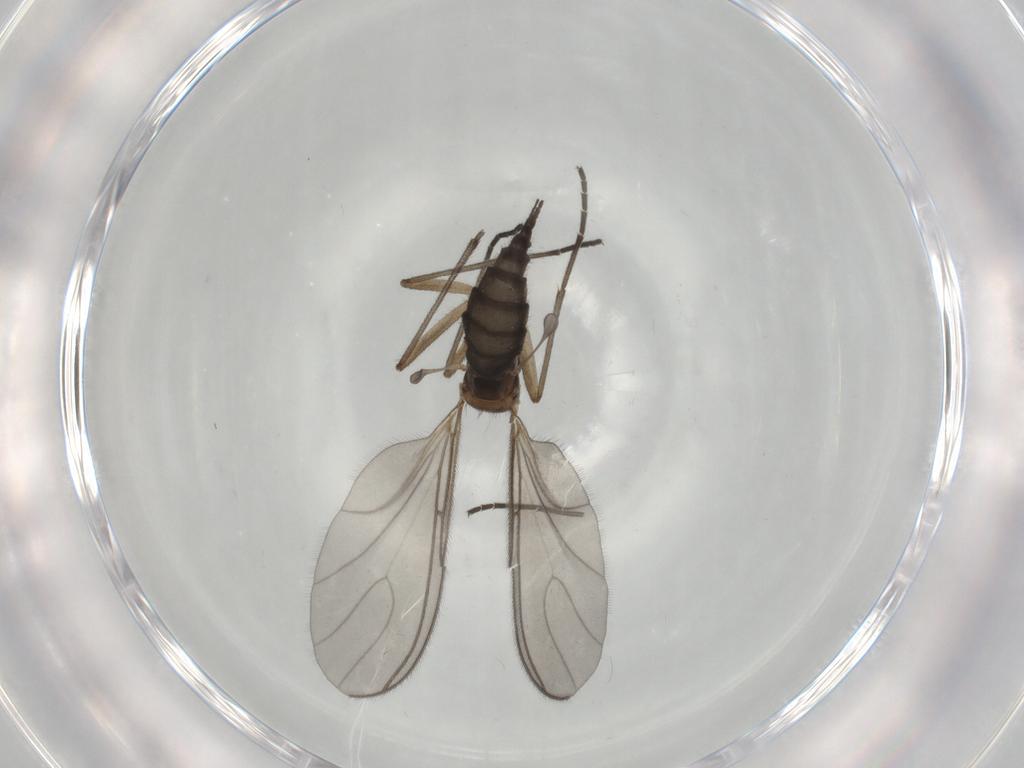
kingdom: Animalia
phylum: Arthropoda
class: Insecta
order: Diptera
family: Sciaridae
